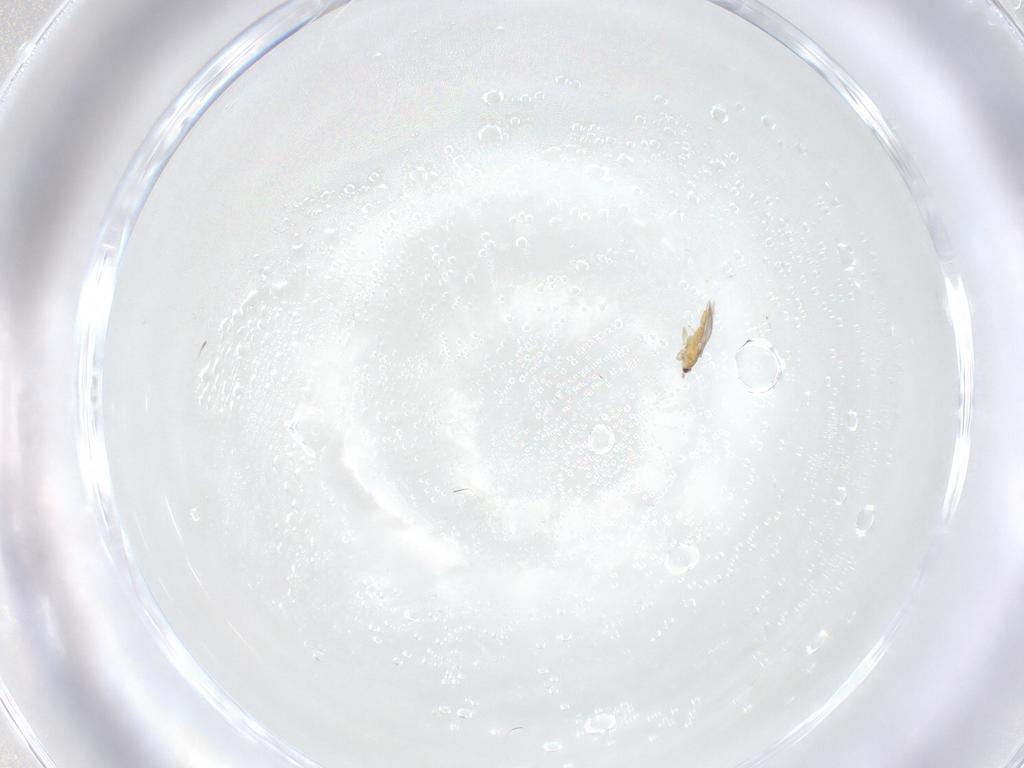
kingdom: Animalia
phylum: Arthropoda
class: Insecta
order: Thysanoptera
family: Thripidae
